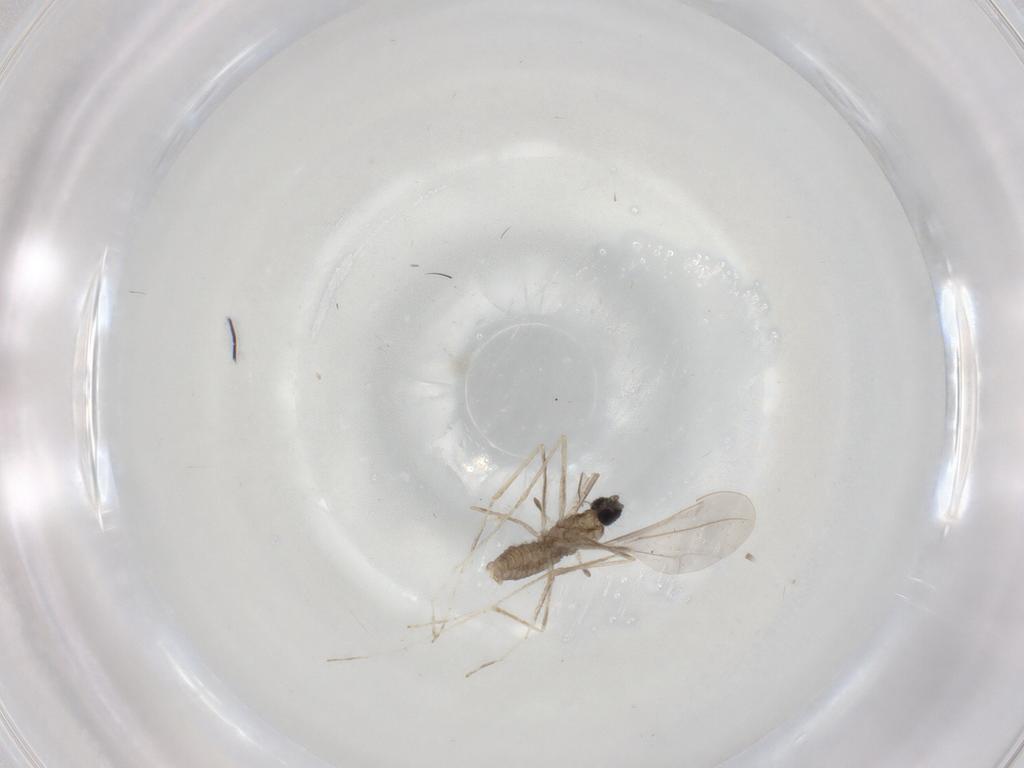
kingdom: Animalia
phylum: Arthropoda
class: Insecta
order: Diptera
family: Cecidomyiidae
